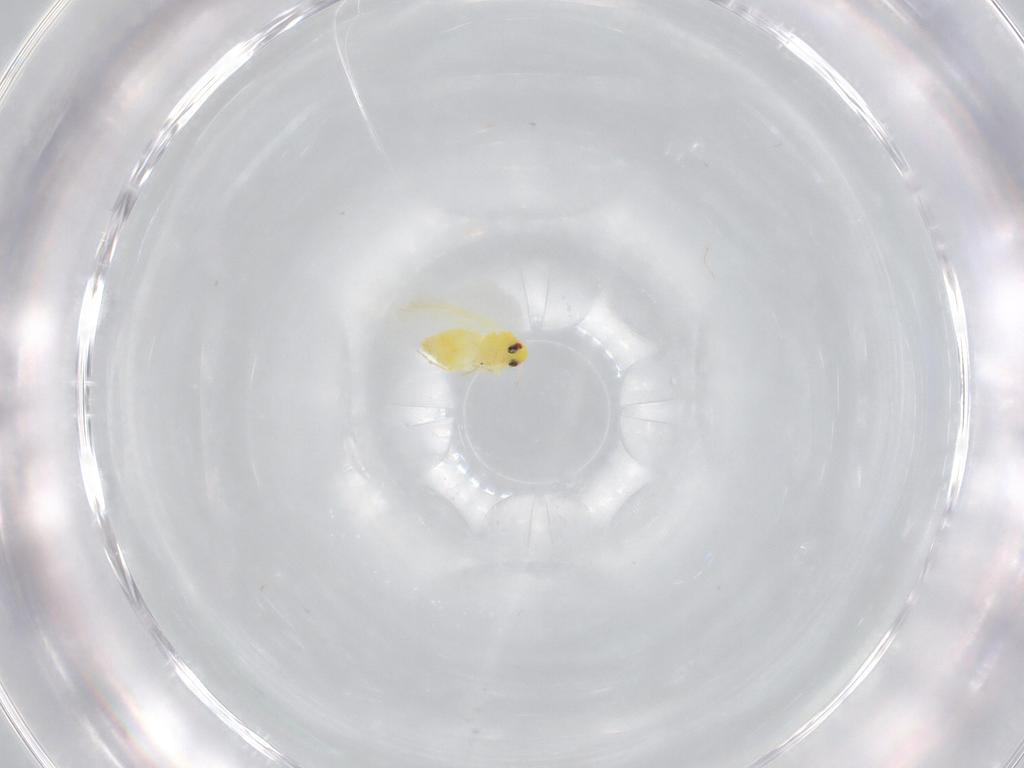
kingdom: Animalia
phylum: Arthropoda
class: Insecta
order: Hemiptera
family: Aleyrodidae
